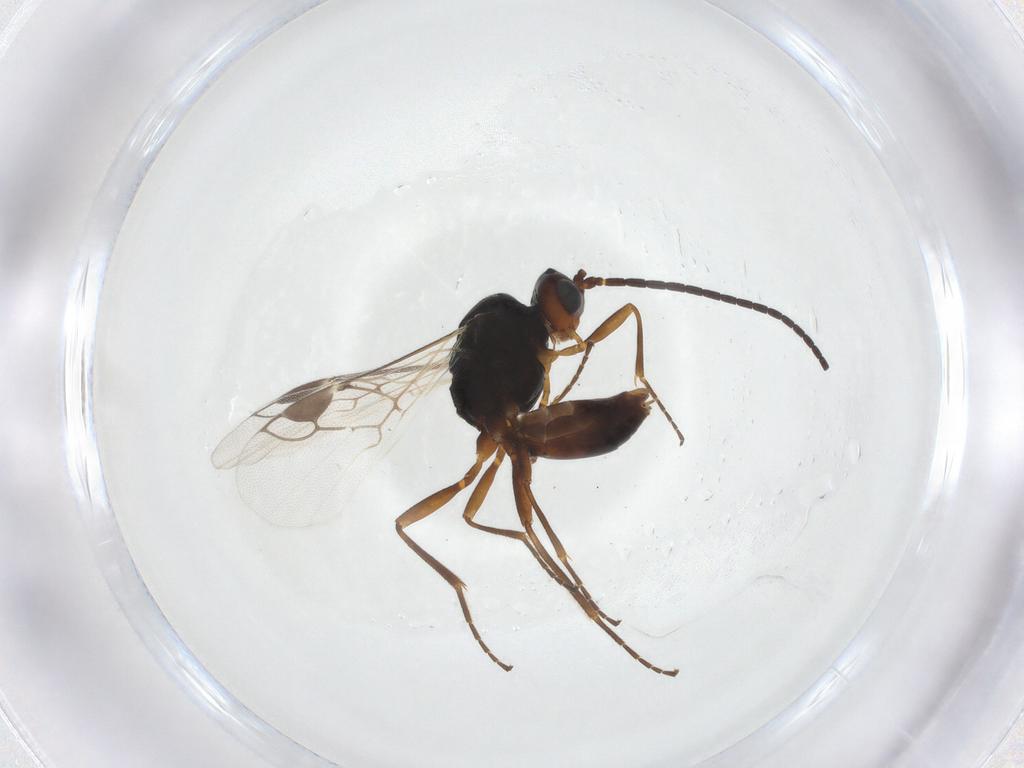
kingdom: Animalia
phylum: Arthropoda
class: Insecta
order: Hymenoptera
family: Braconidae
